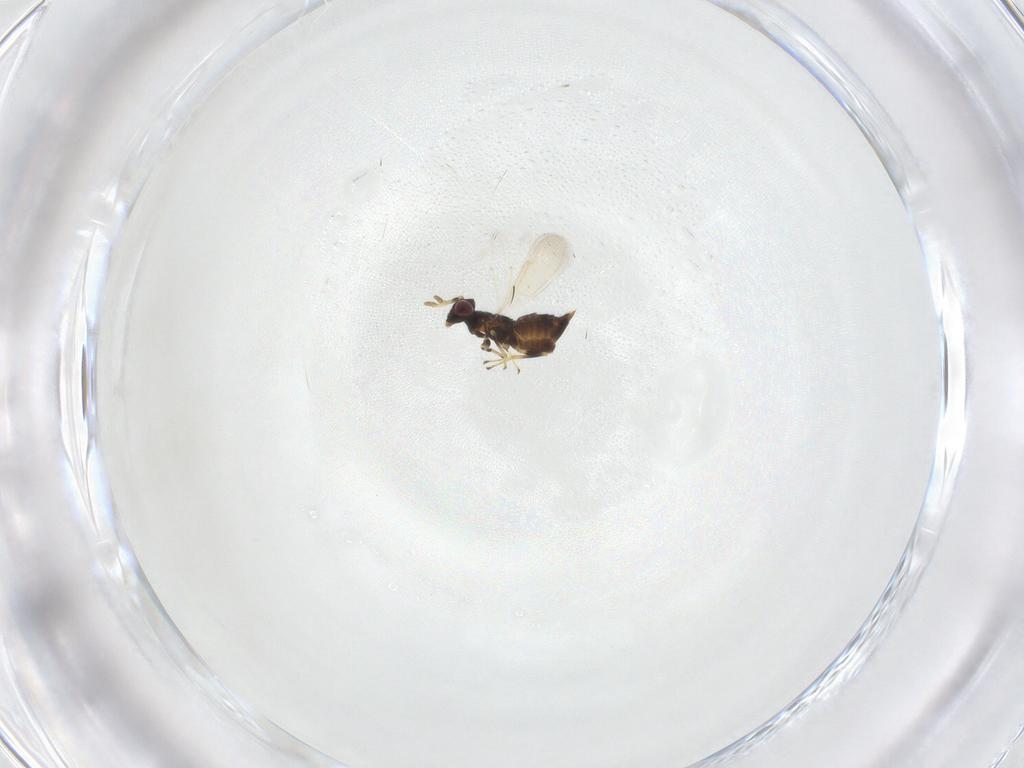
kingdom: Animalia
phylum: Arthropoda
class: Insecta
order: Hymenoptera
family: Aphelinidae
